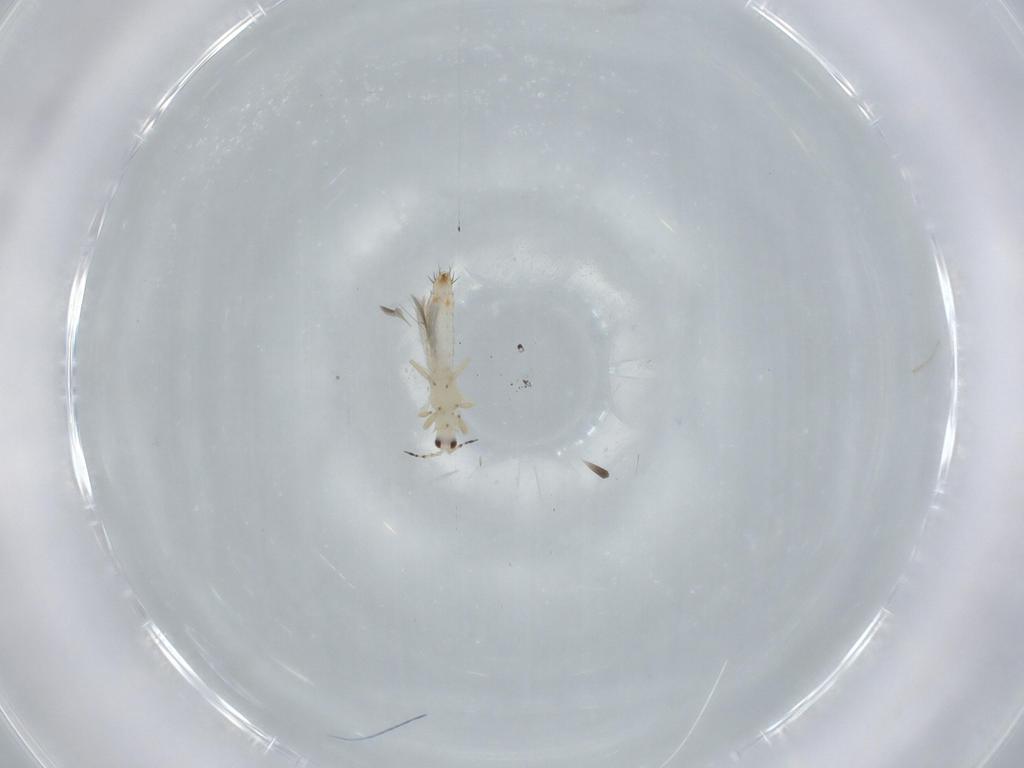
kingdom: Animalia
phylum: Arthropoda
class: Insecta
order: Thysanoptera
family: Thripidae
